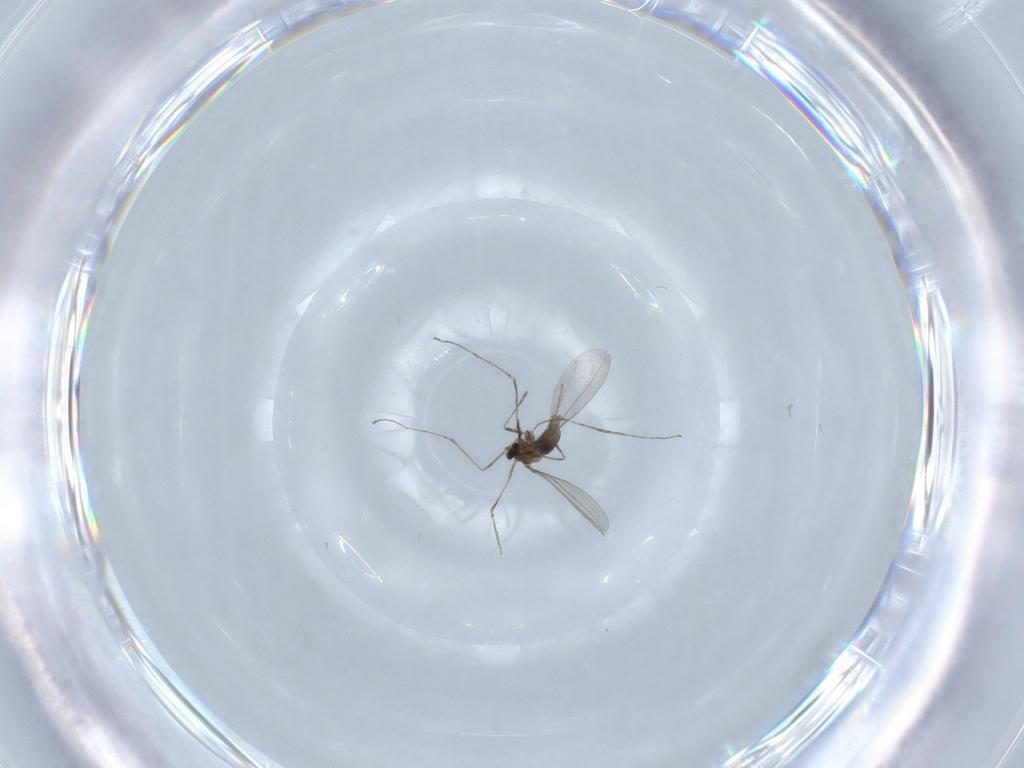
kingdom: Animalia
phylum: Arthropoda
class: Insecta
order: Diptera
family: Cecidomyiidae
